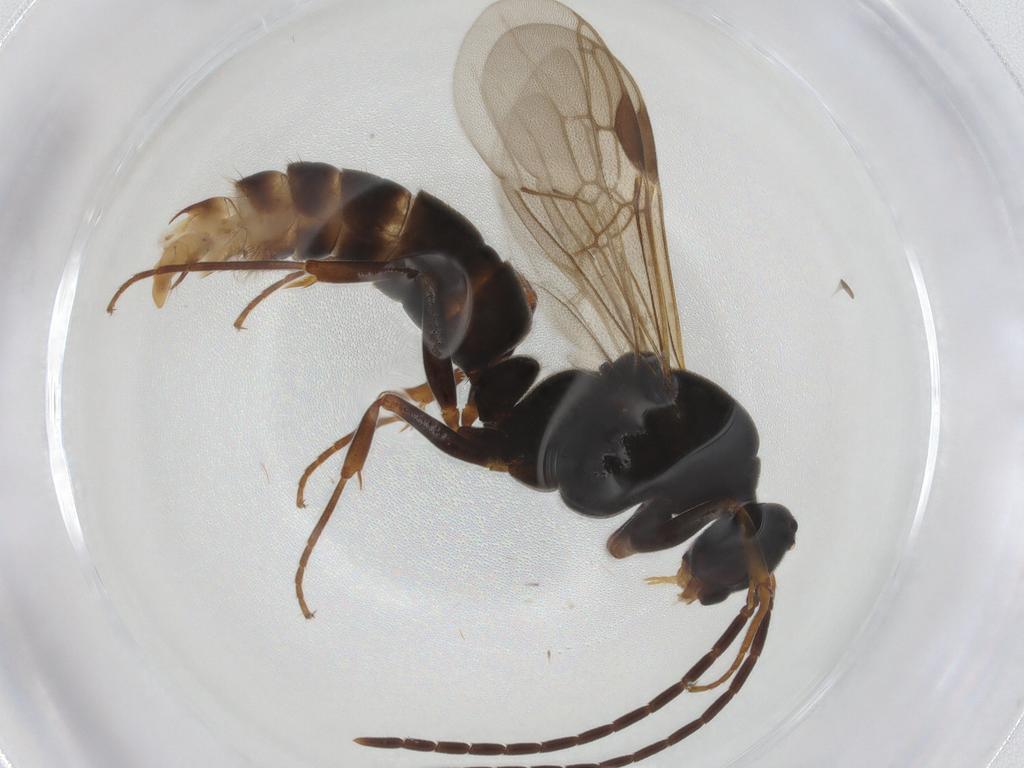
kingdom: Animalia
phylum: Arthropoda
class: Insecta
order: Hymenoptera
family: Formicidae
